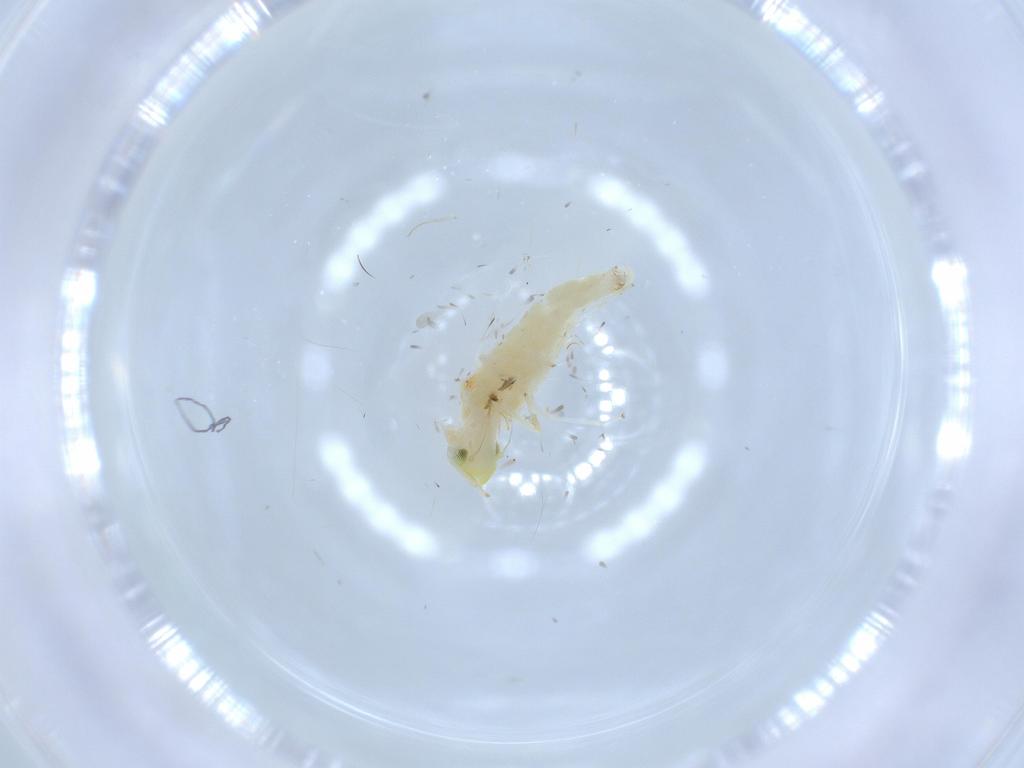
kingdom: Animalia
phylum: Arthropoda
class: Insecta
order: Hemiptera
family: Cicadellidae
